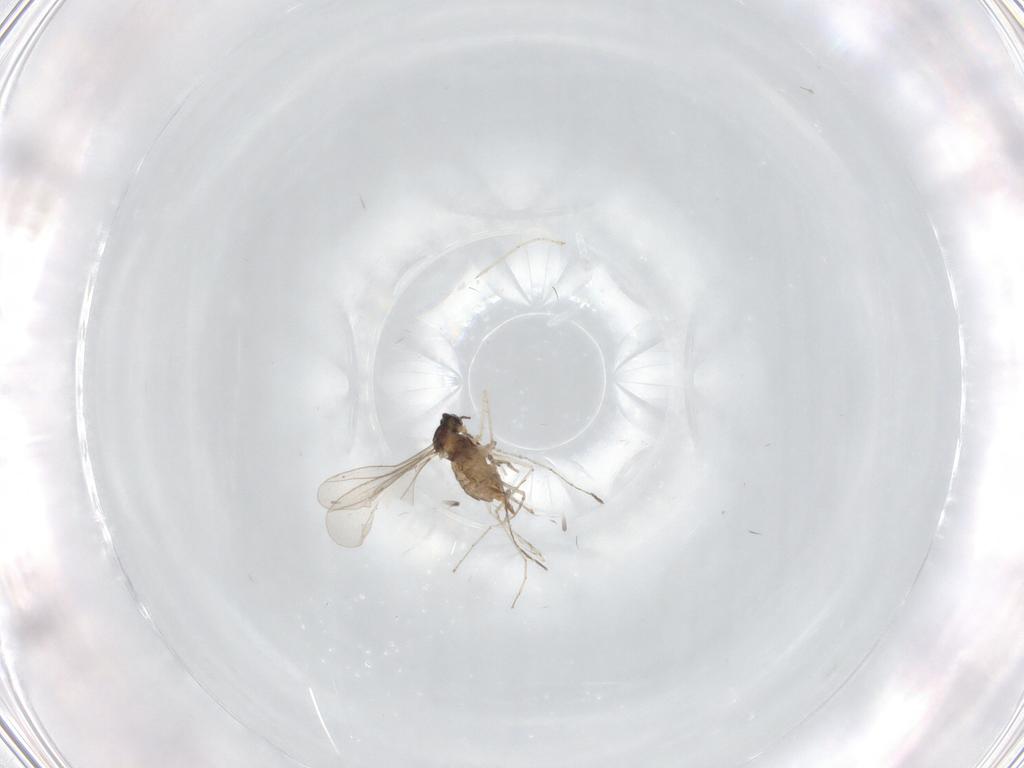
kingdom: Animalia
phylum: Arthropoda
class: Insecta
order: Diptera
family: Cecidomyiidae
